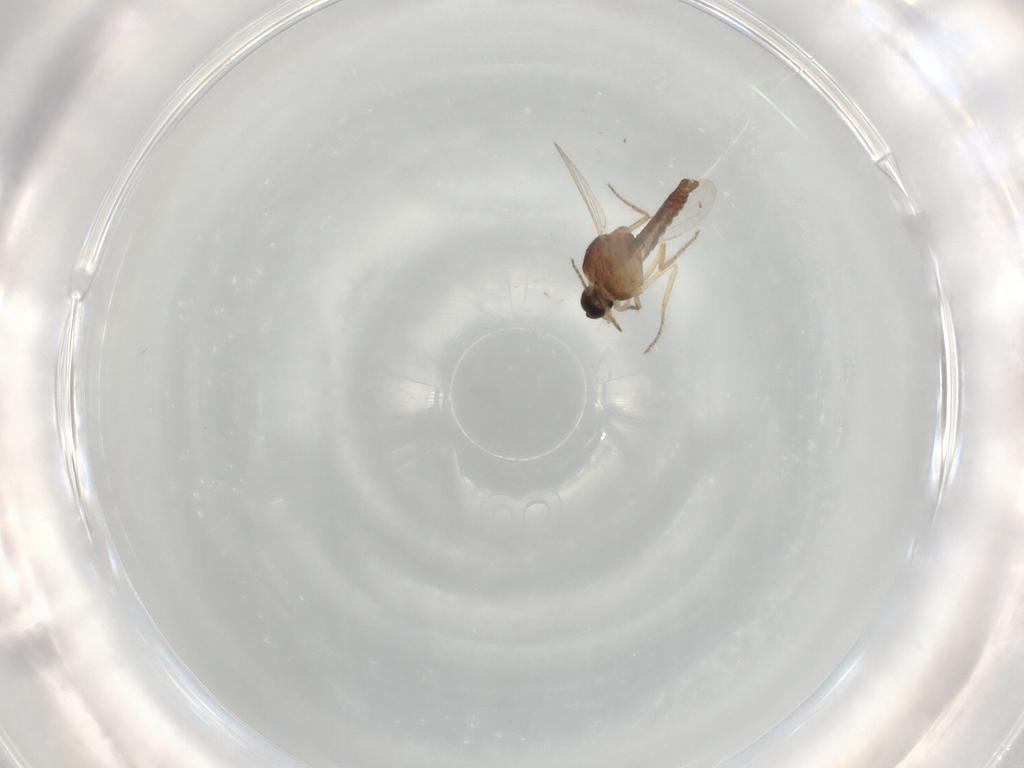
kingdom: Animalia
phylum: Arthropoda
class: Insecta
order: Diptera
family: Ceratopogonidae
